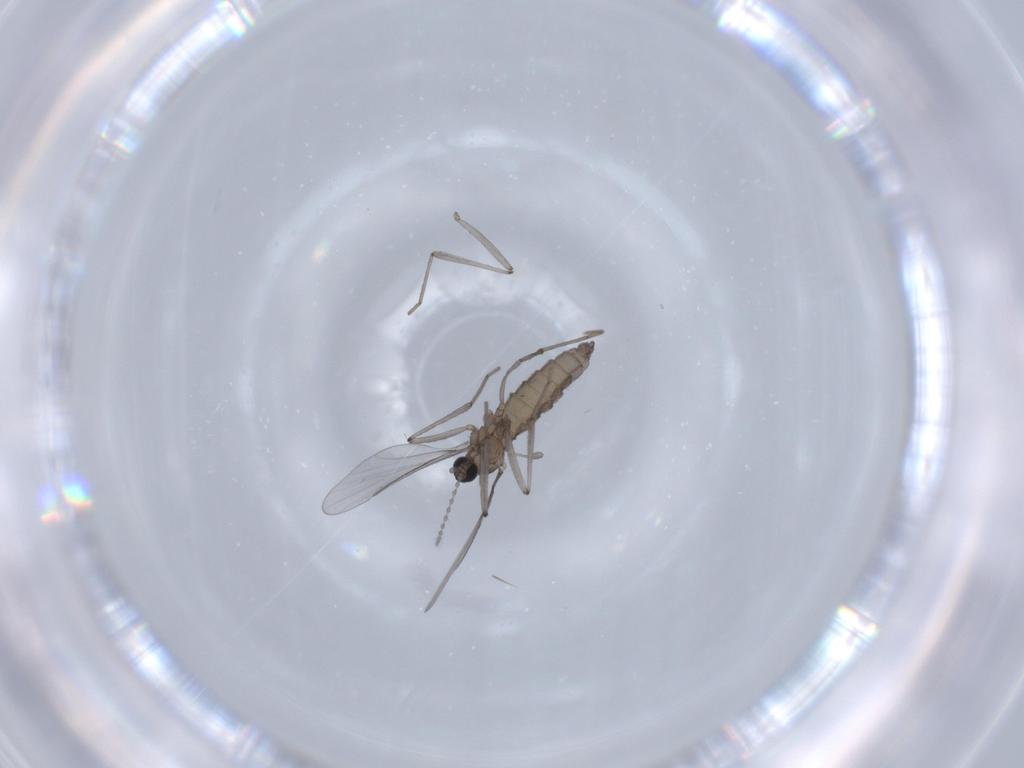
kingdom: Animalia
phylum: Arthropoda
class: Insecta
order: Diptera
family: Cecidomyiidae
